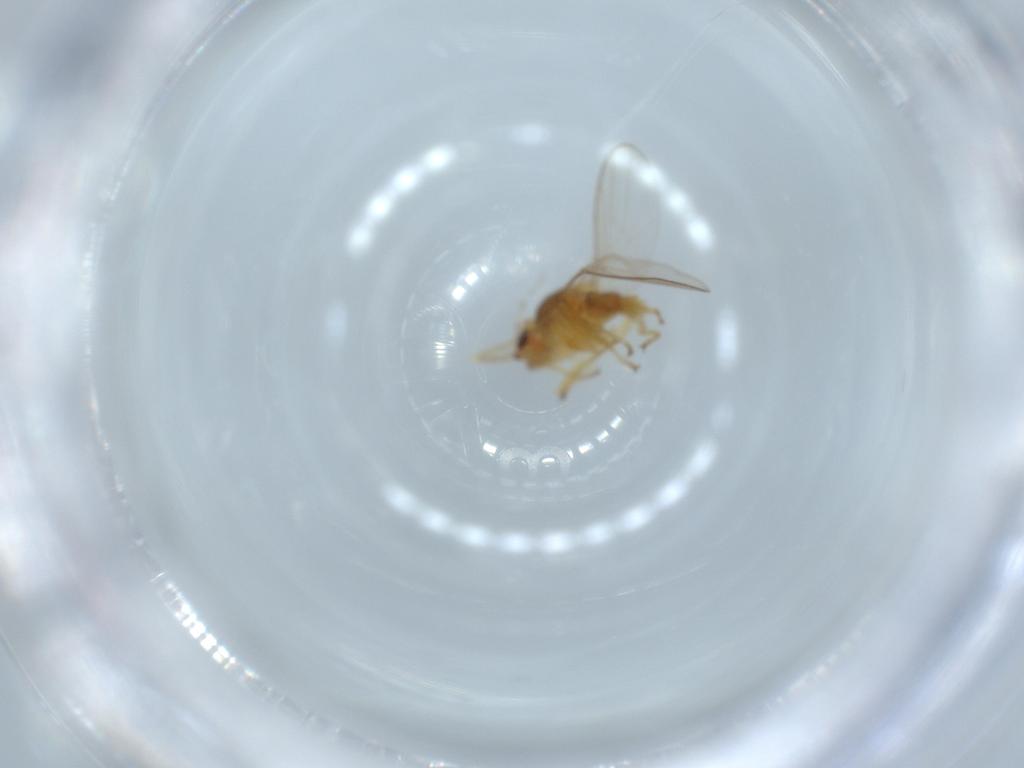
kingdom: Animalia
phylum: Arthropoda
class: Insecta
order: Diptera
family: Chloropidae
